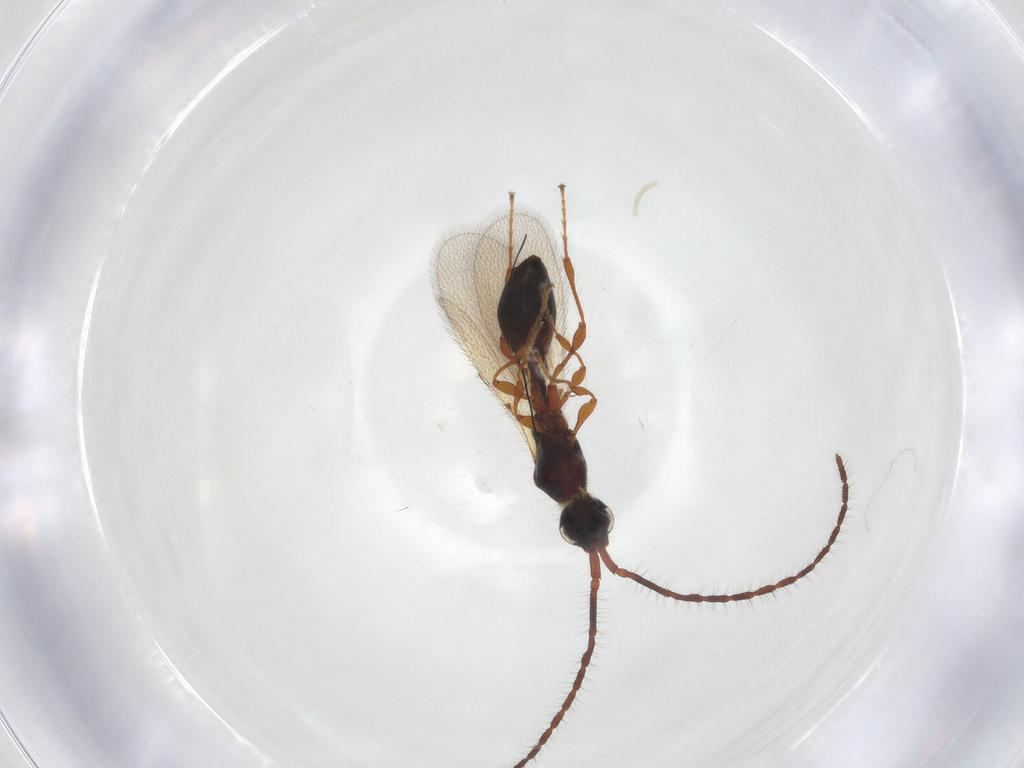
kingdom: Animalia
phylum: Arthropoda
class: Insecta
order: Hymenoptera
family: Diapriidae
